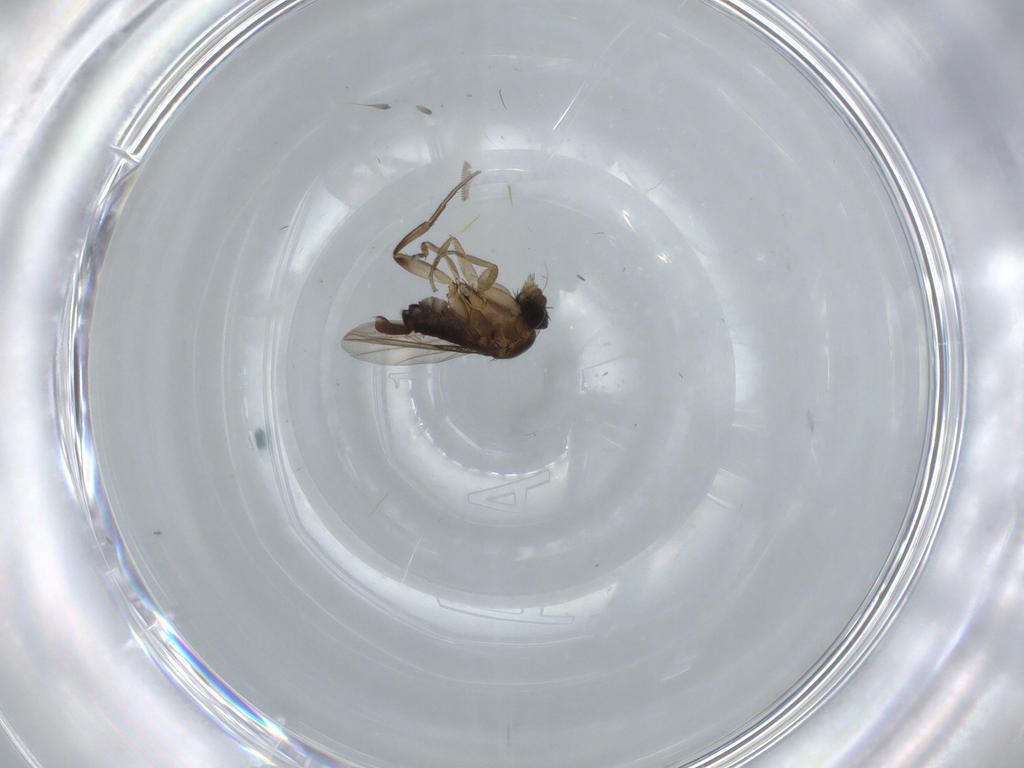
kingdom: Animalia
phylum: Arthropoda
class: Insecta
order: Diptera
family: Phoridae
